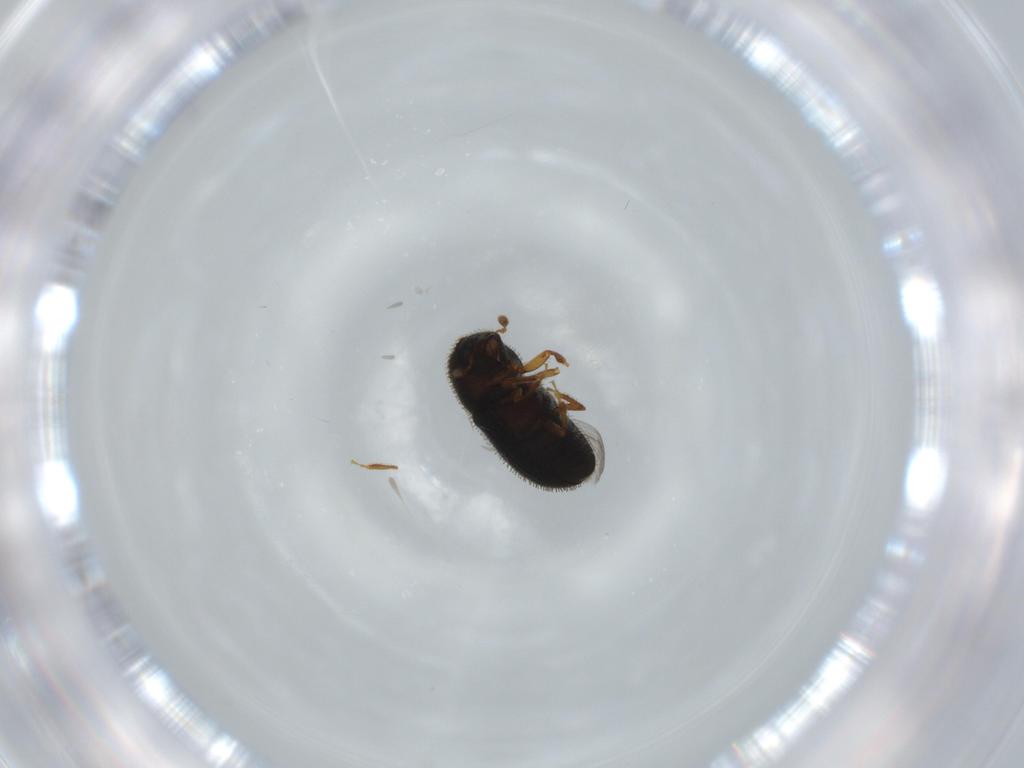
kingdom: Animalia
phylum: Arthropoda
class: Insecta
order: Coleoptera
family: Curculionidae
